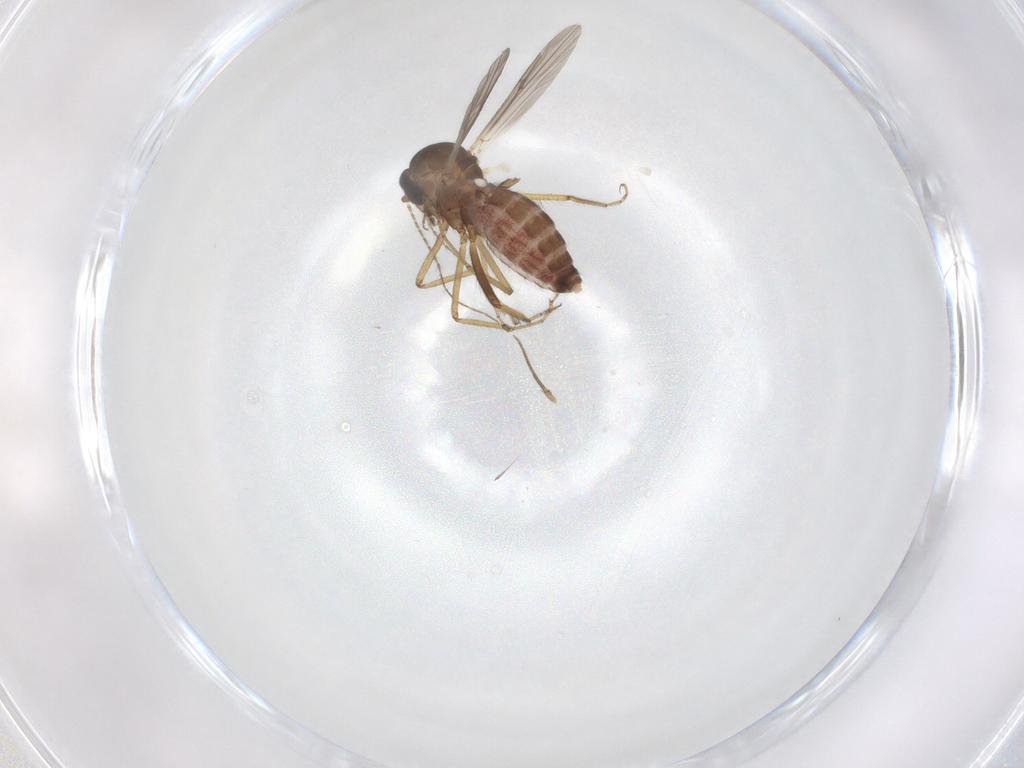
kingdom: Animalia
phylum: Arthropoda
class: Insecta
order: Diptera
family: Ceratopogonidae
